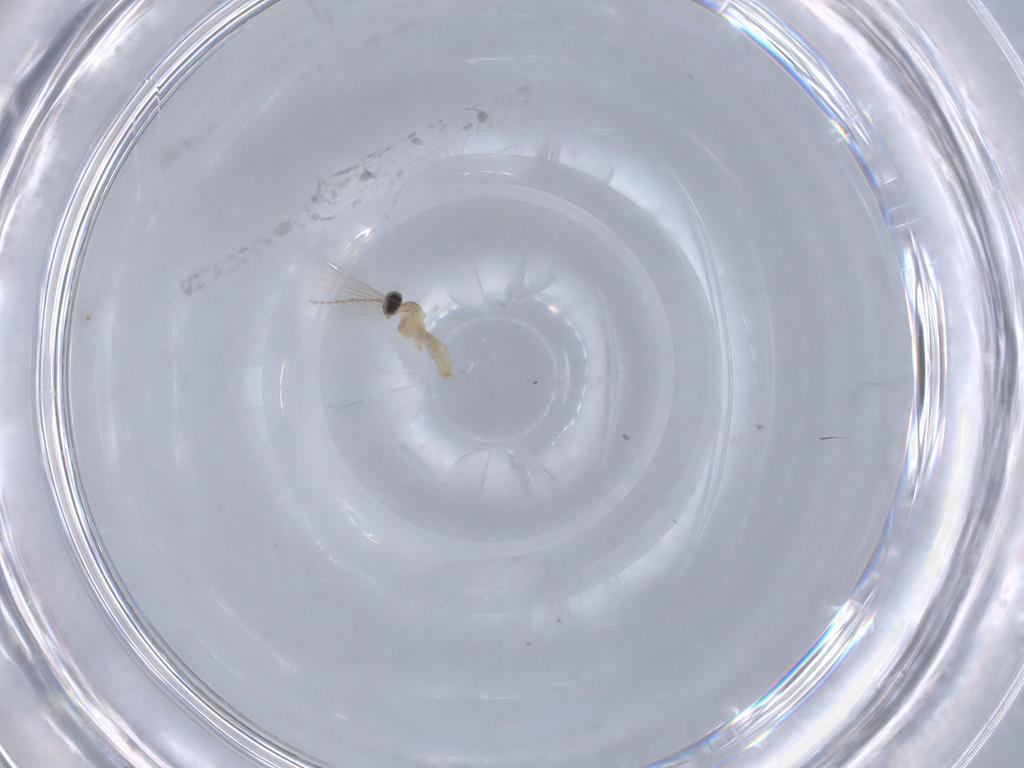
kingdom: Animalia
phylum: Arthropoda
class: Insecta
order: Diptera
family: Cecidomyiidae
